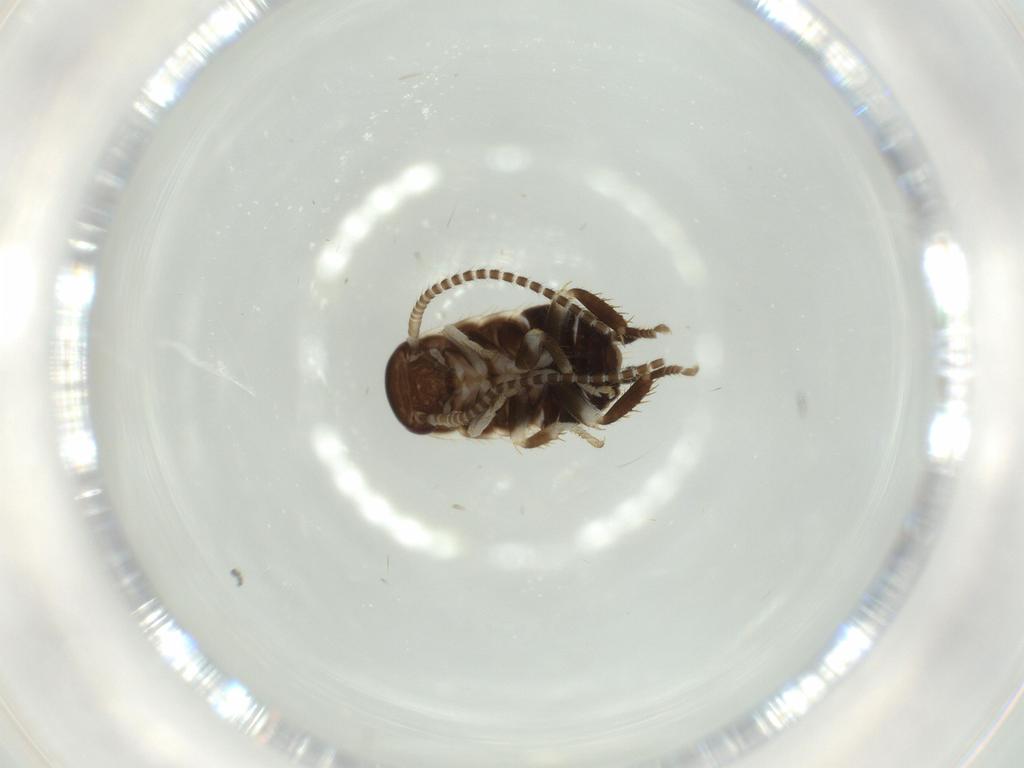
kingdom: Animalia
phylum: Arthropoda
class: Insecta
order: Blattodea
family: Ectobiidae
